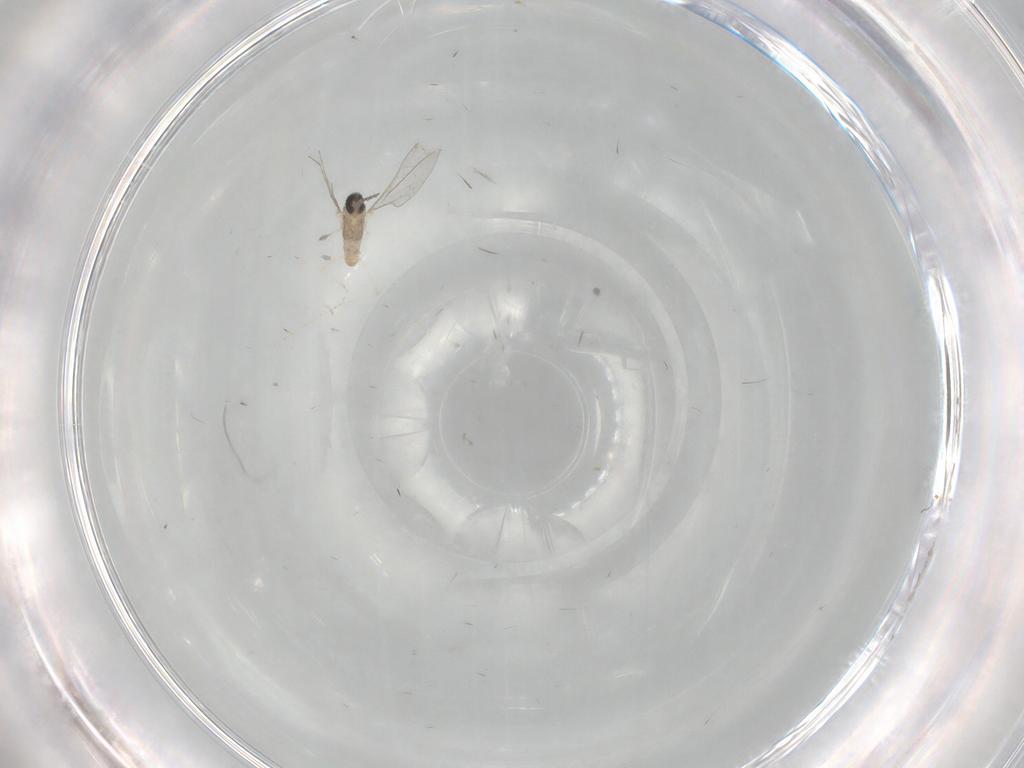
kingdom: Animalia
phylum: Arthropoda
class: Insecta
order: Diptera
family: Cecidomyiidae
